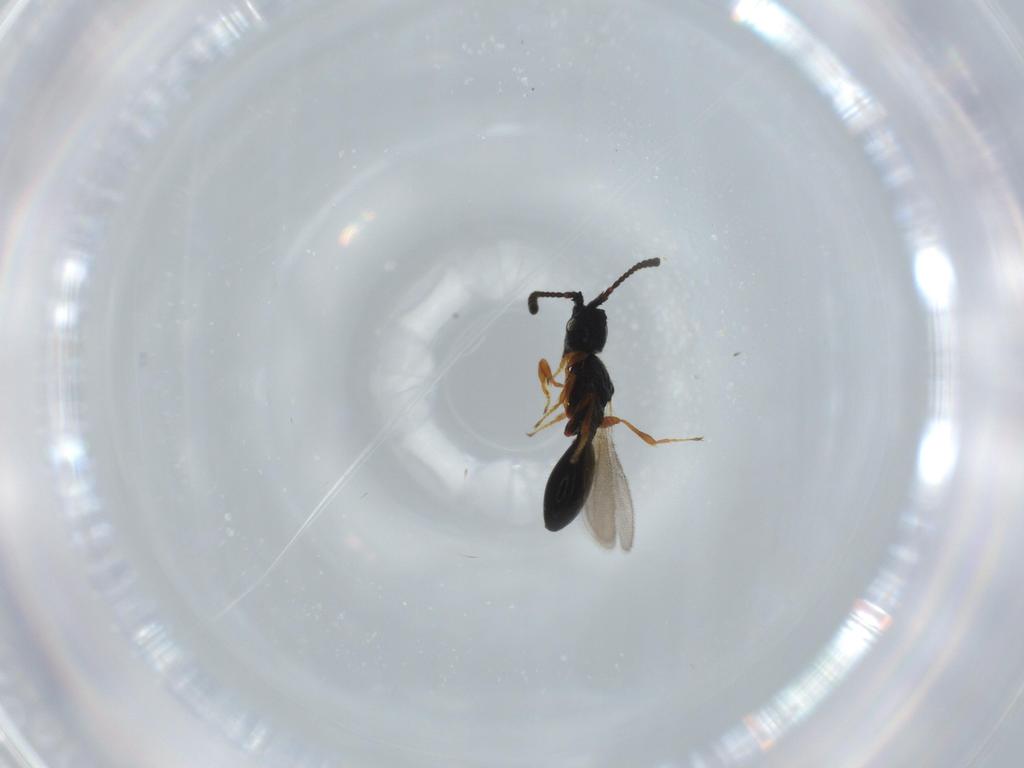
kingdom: Animalia
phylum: Arthropoda
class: Insecta
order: Hymenoptera
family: Diapriidae
